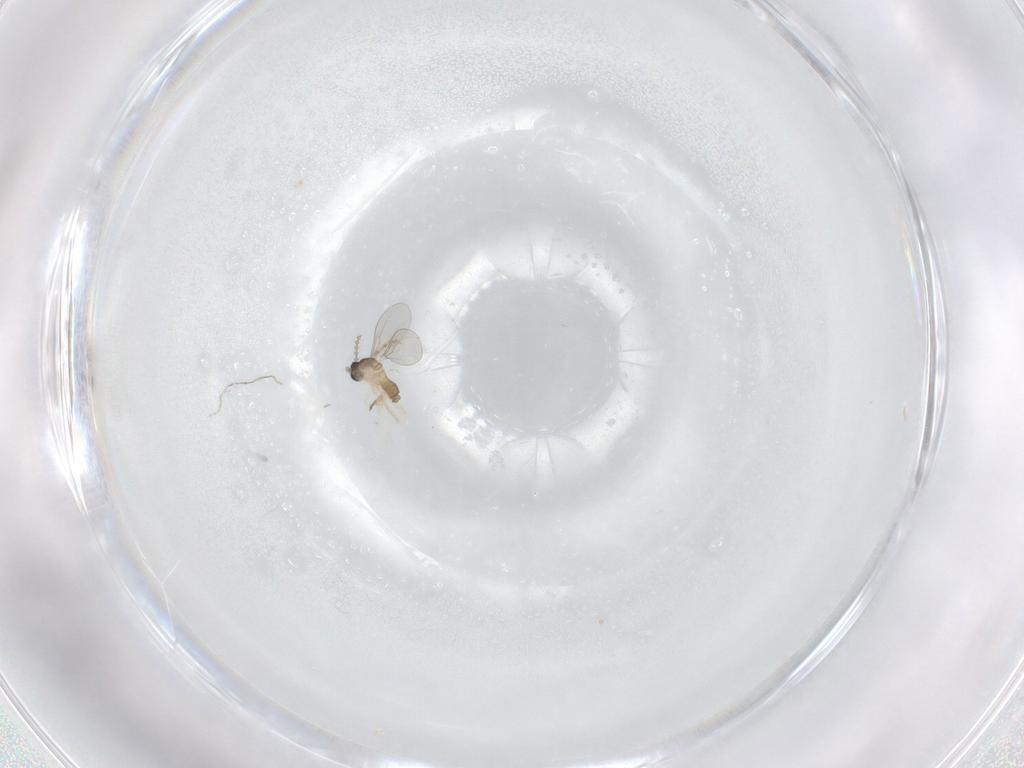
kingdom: Animalia
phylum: Arthropoda
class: Insecta
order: Diptera
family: Cecidomyiidae
